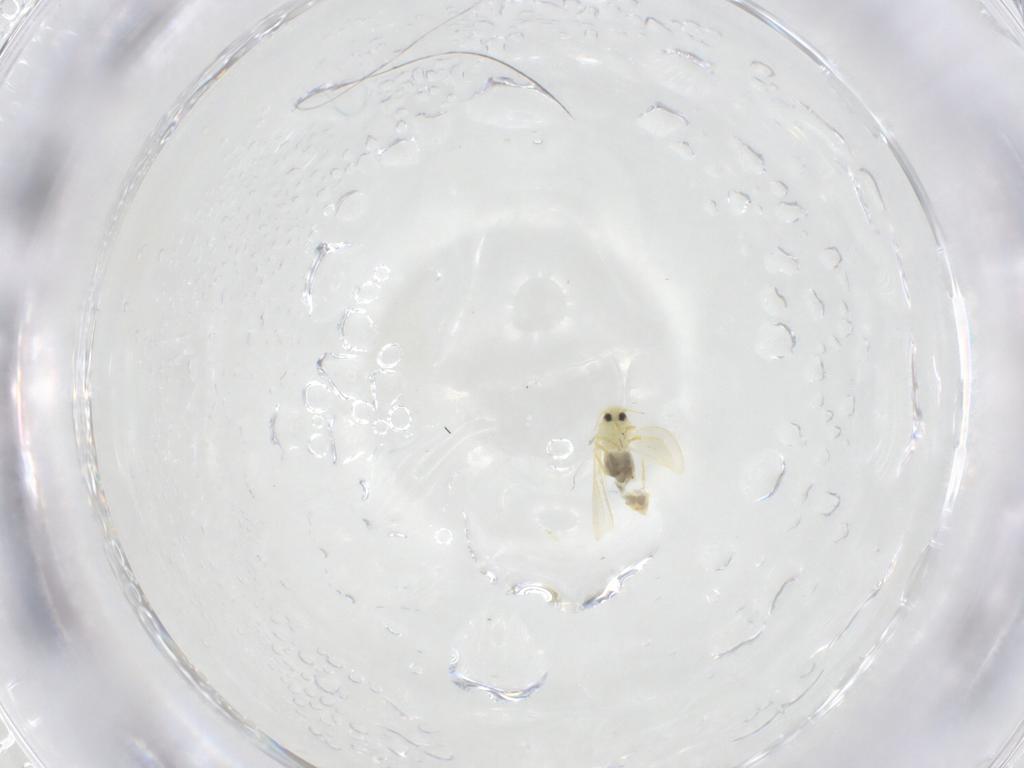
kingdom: Animalia
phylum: Arthropoda
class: Insecta
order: Hemiptera
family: Aleyrodidae
